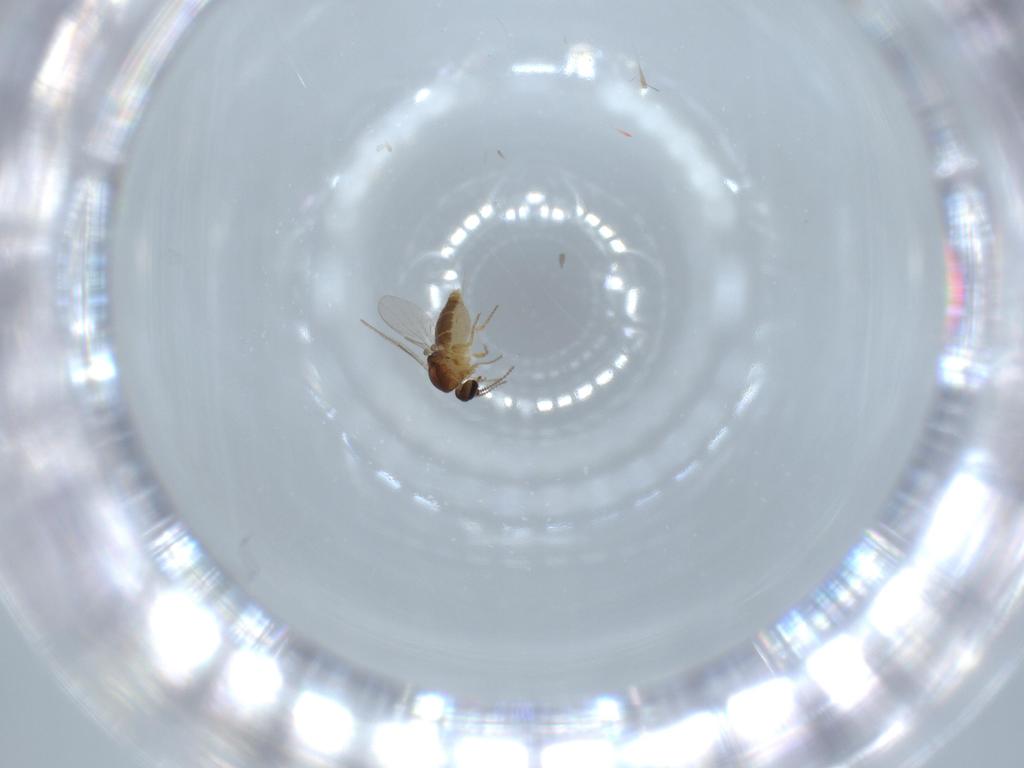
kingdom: Animalia
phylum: Arthropoda
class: Insecta
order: Diptera
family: Ceratopogonidae
